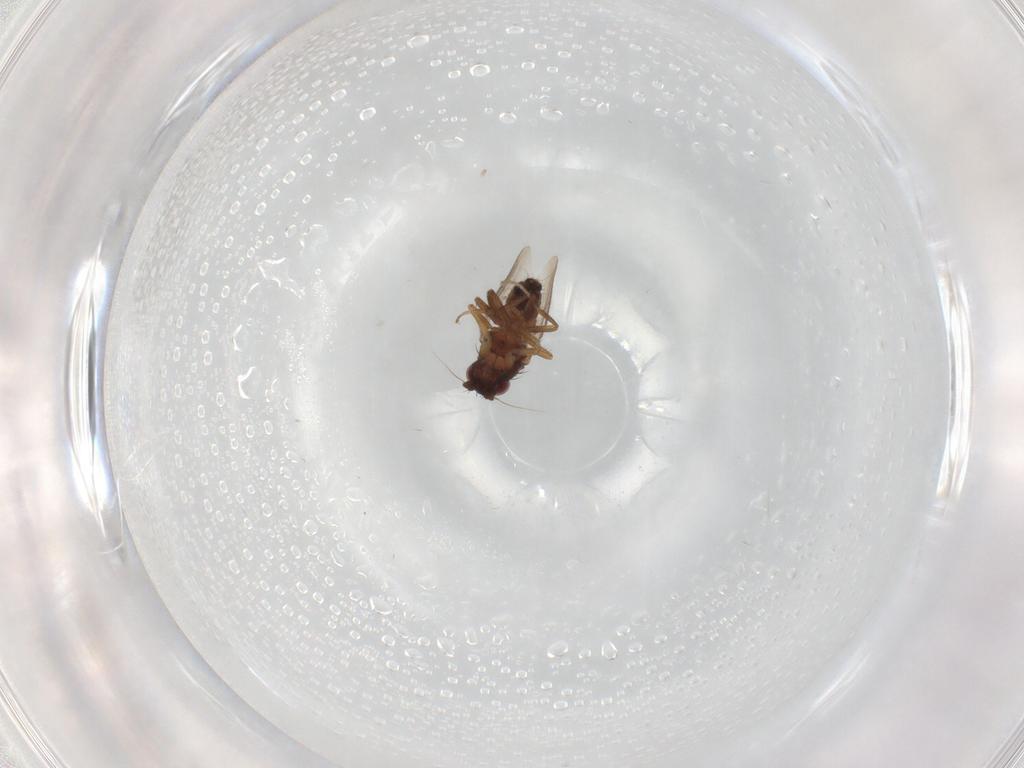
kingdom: Animalia
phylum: Arthropoda
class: Insecta
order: Diptera
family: Sphaeroceridae
